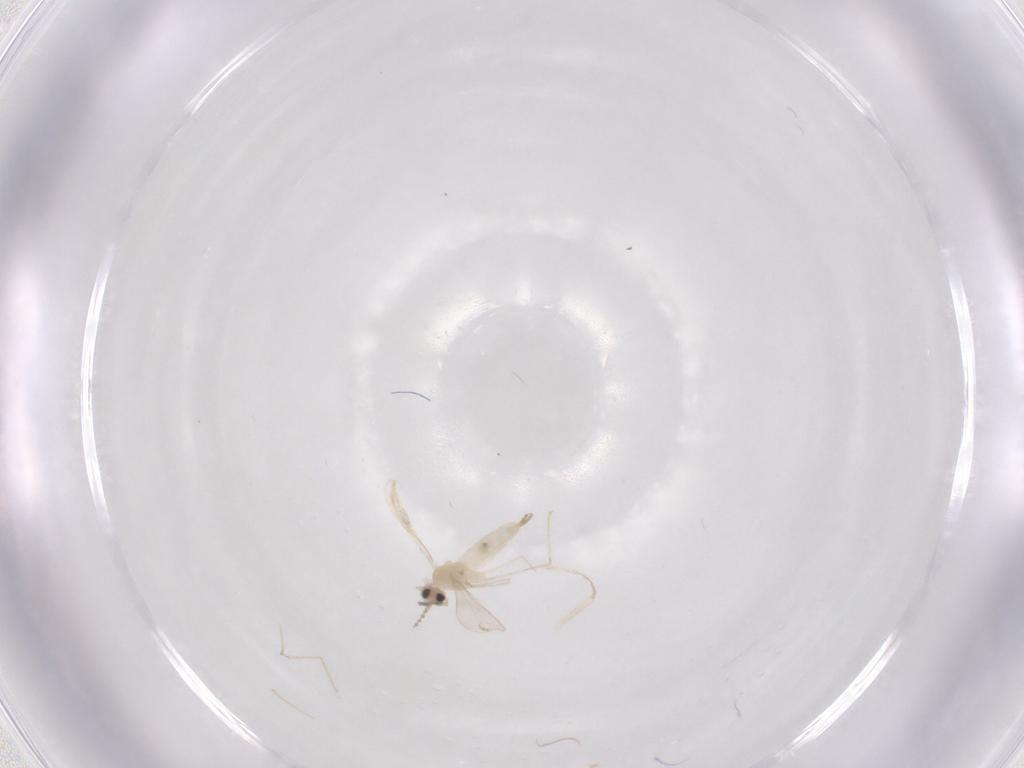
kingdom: Animalia
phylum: Arthropoda
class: Insecta
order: Diptera
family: Cecidomyiidae
